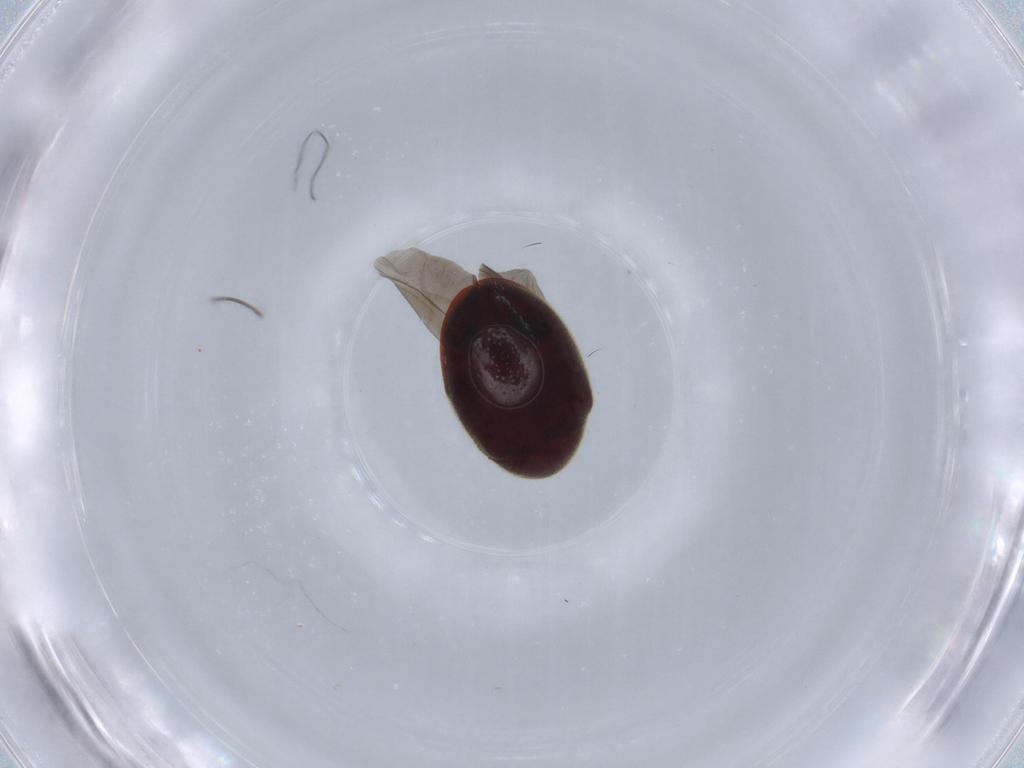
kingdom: Animalia
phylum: Arthropoda
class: Insecta
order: Coleoptera
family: Ptinidae
